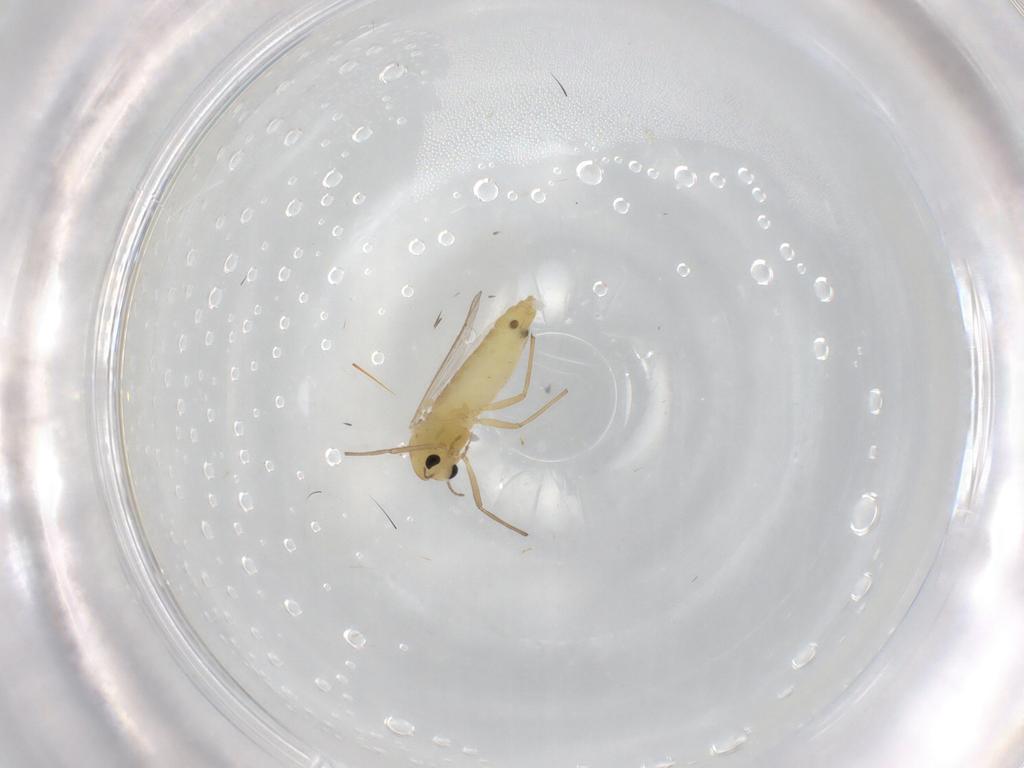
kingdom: Animalia
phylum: Arthropoda
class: Insecta
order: Diptera
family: Chironomidae
